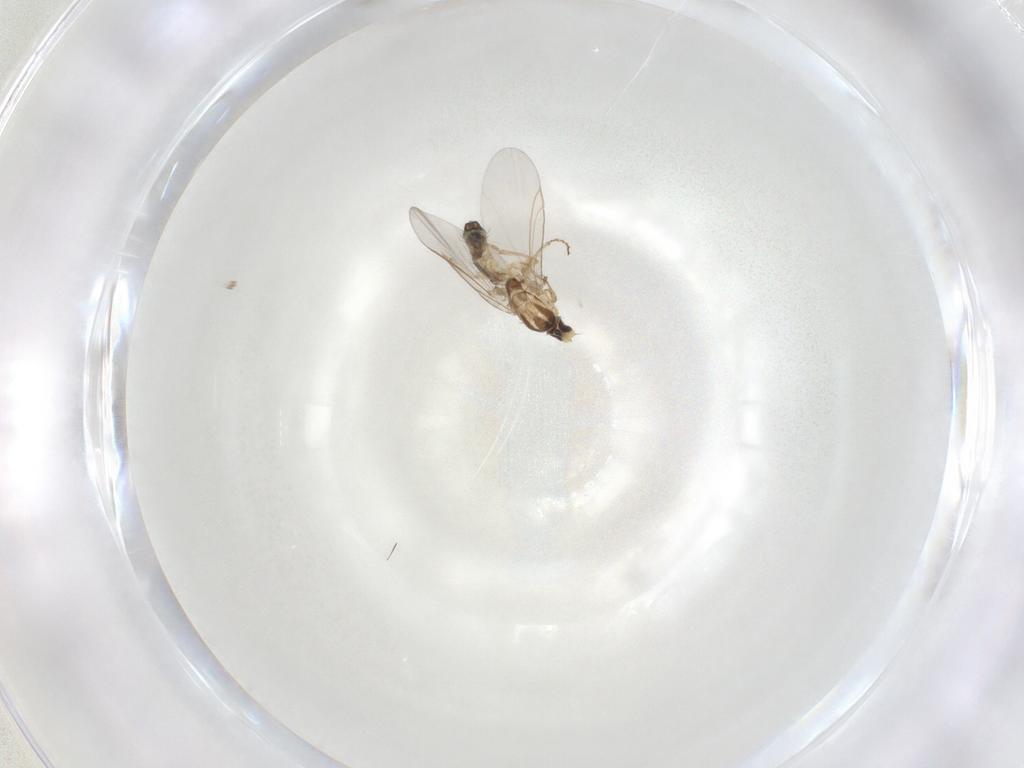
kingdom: Animalia
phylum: Arthropoda
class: Insecta
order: Diptera
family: Agromyzidae
